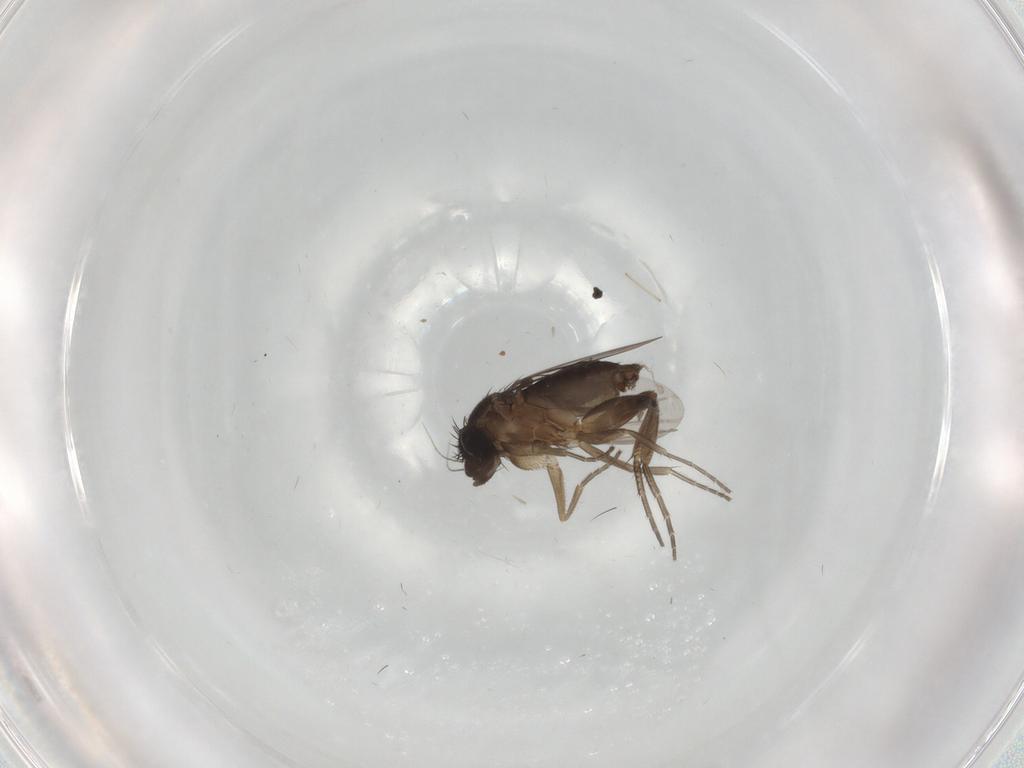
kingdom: Animalia
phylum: Arthropoda
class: Insecta
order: Diptera
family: Phoridae
